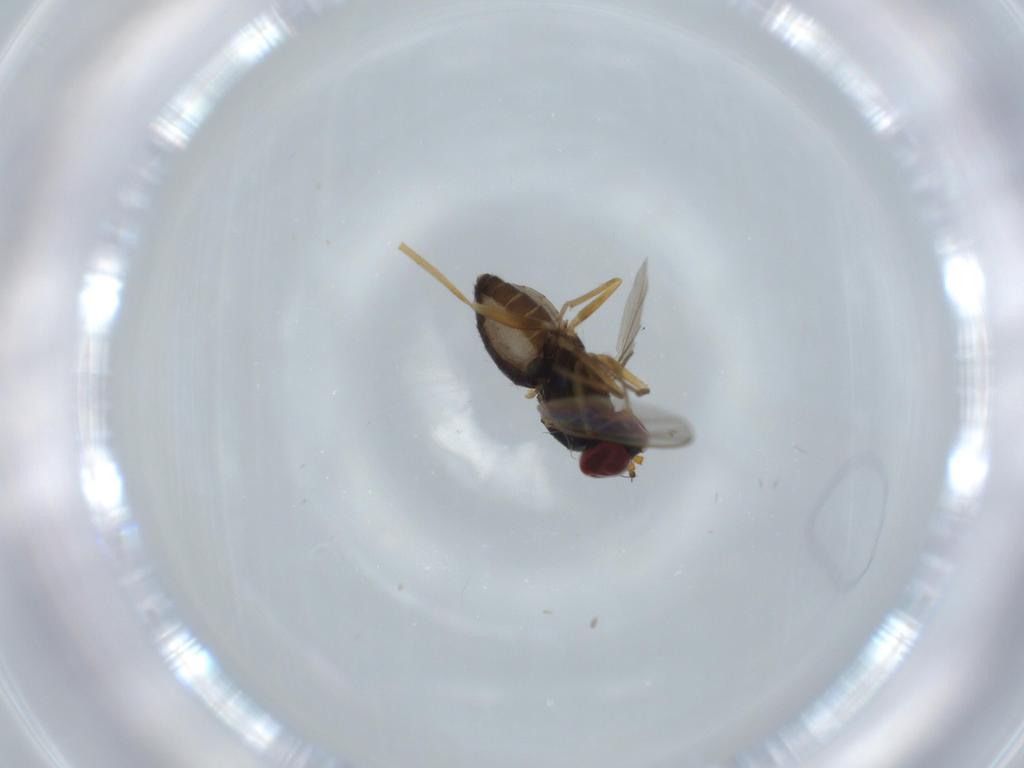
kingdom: Animalia
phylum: Arthropoda
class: Insecta
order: Diptera
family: Dolichopodidae
